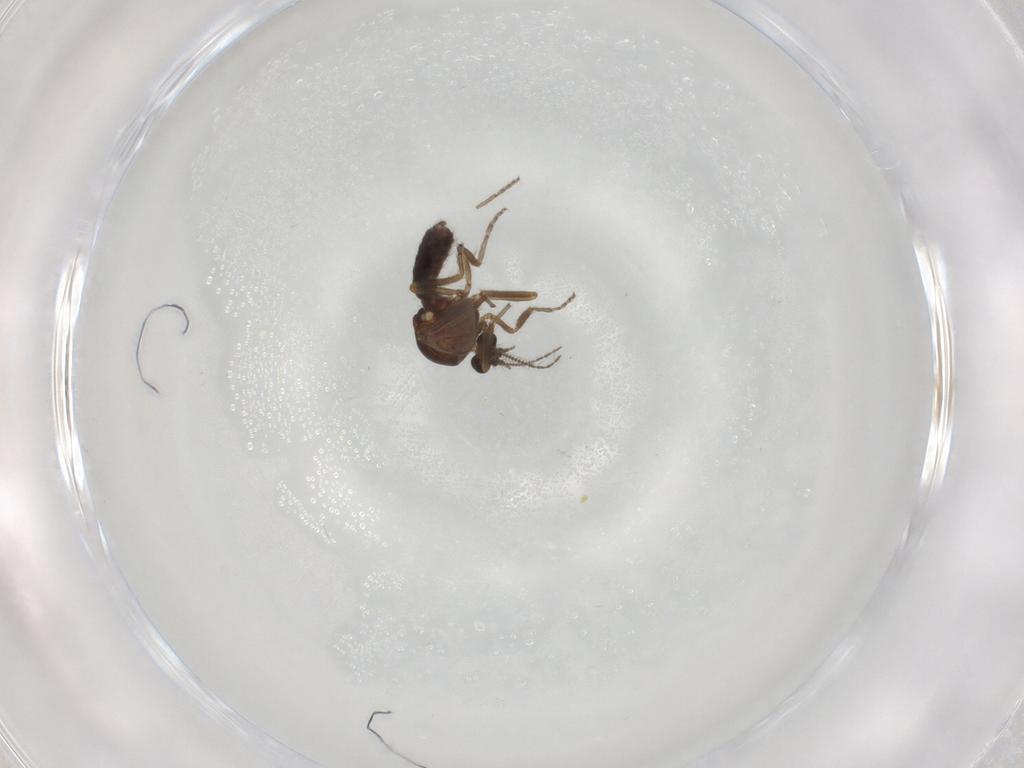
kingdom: Animalia
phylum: Arthropoda
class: Insecta
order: Diptera
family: Ceratopogonidae
